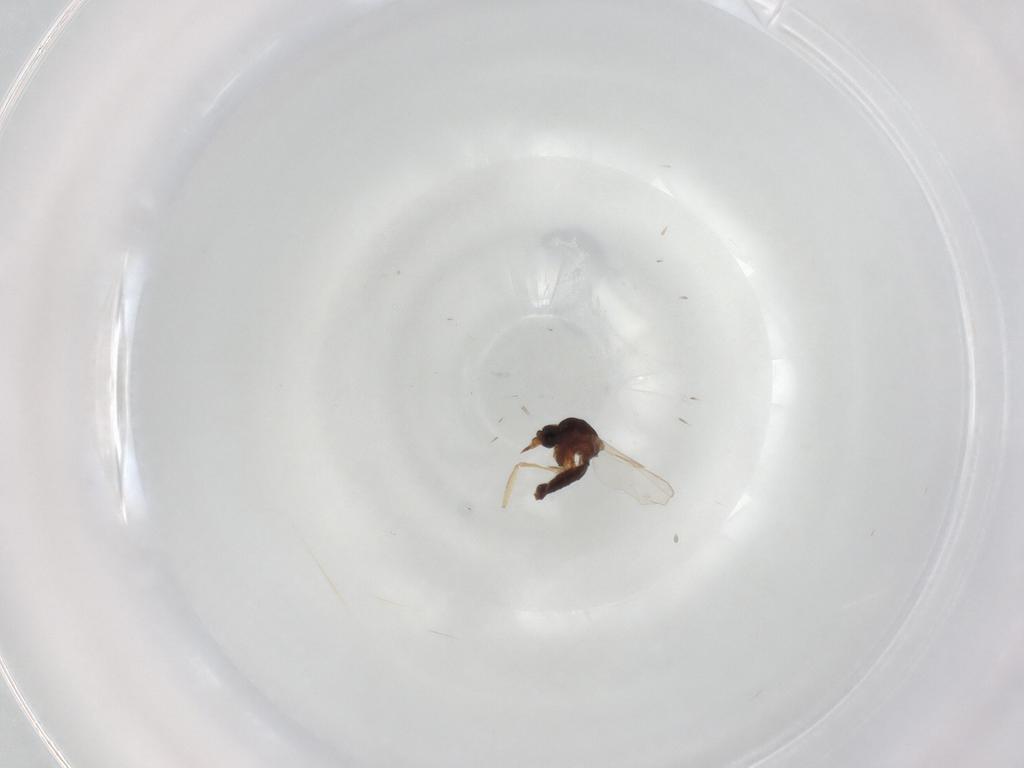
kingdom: Animalia
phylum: Arthropoda
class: Insecta
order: Diptera
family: Ceratopogonidae
